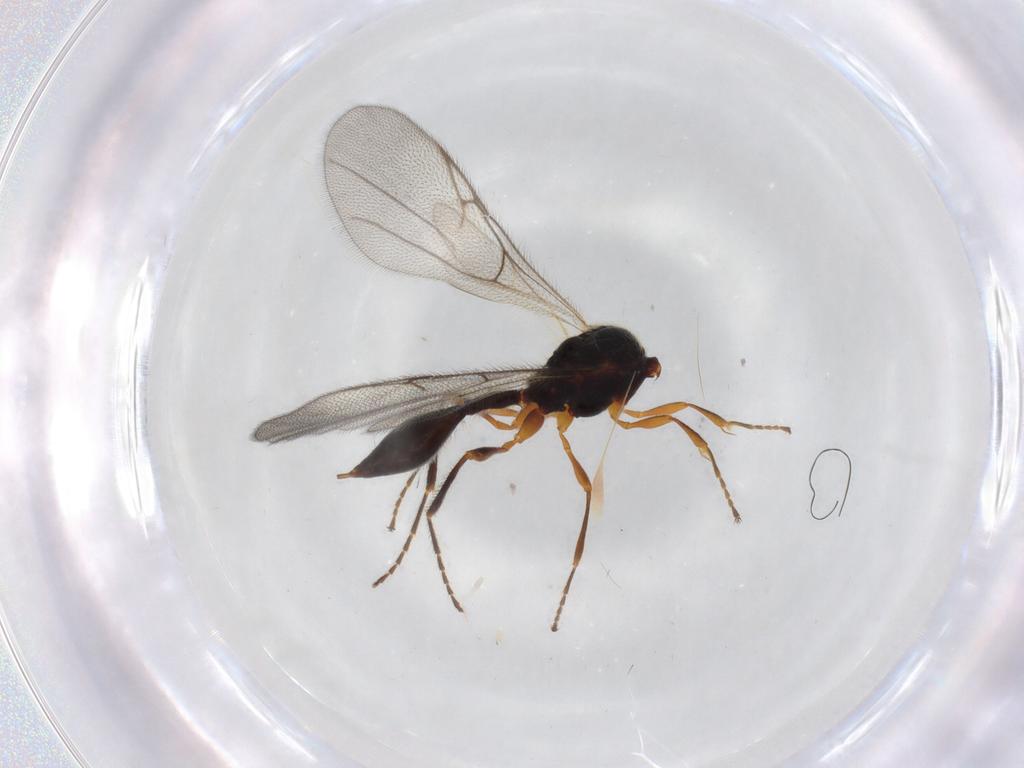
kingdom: Animalia
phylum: Arthropoda
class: Insecta
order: Hymenoptera
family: Diapriidae
